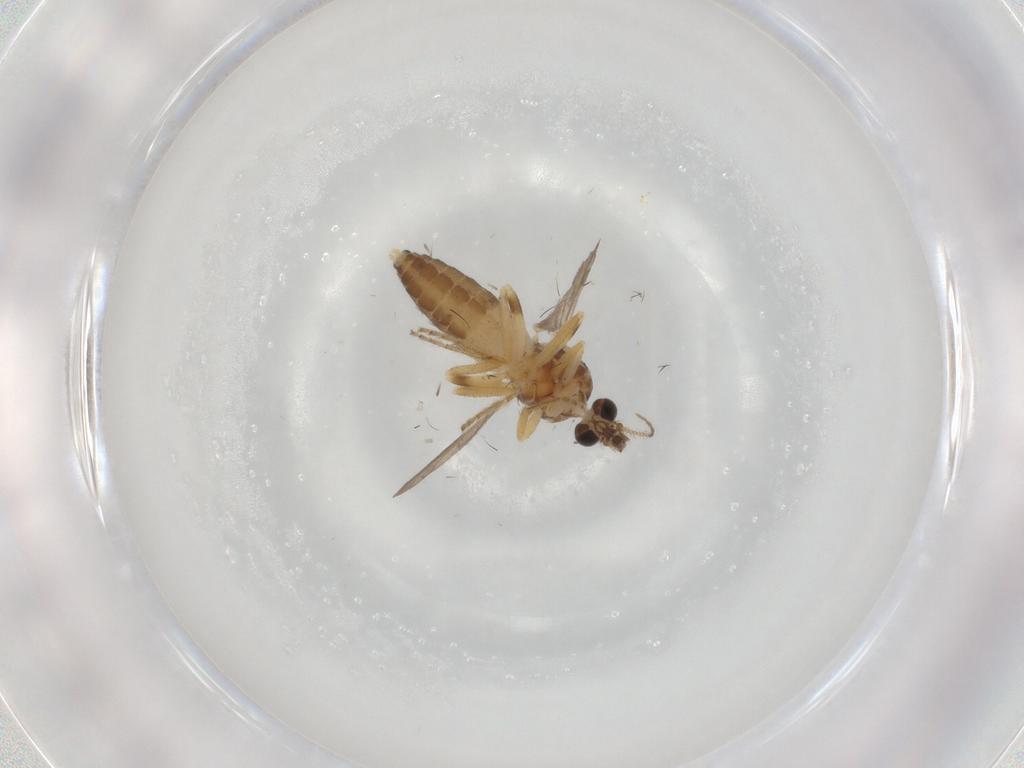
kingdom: Animalia
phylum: Arthropoda
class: Insecta
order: Diptera
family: Ceratopogonidae
